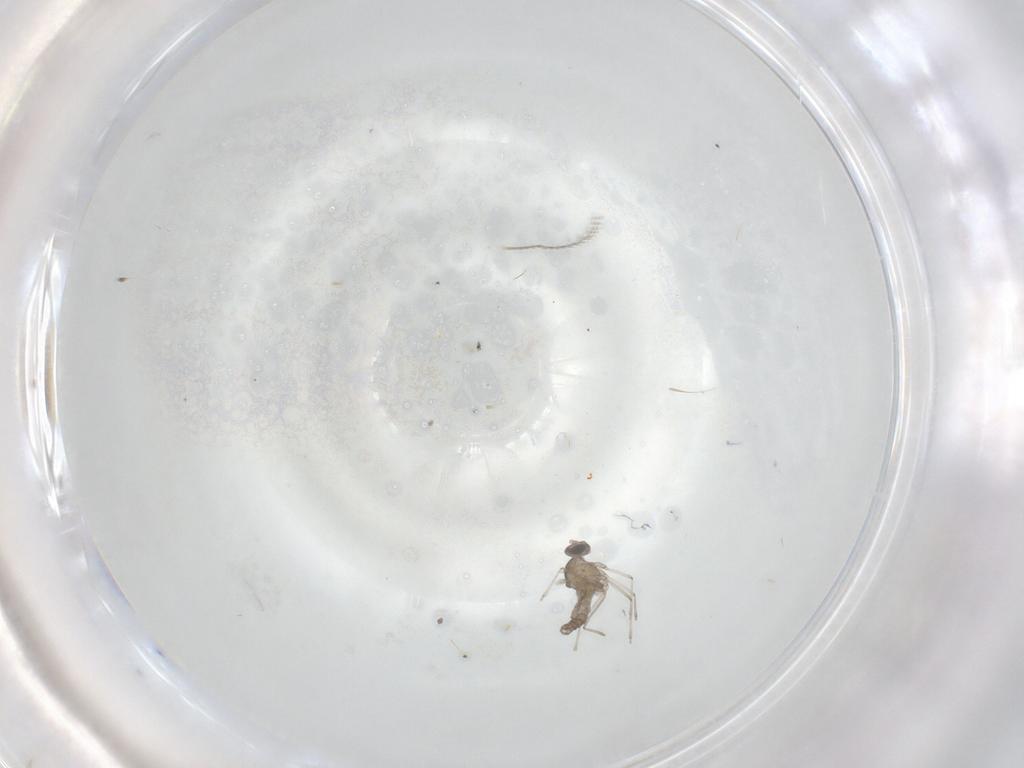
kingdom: Animalia
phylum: Arthropoda
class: Insecta
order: Diptera
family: Cecidomyiidae
